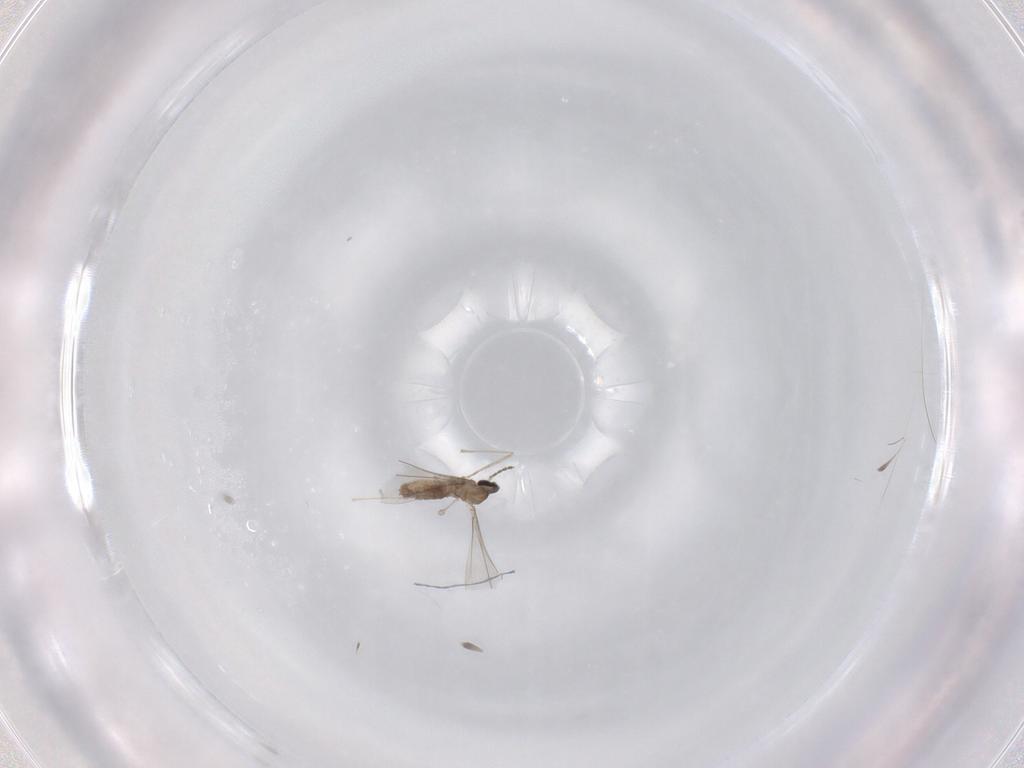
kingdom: Animalia
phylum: Arthropoda
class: Insecta
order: Diptera
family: Cecidomyiidae
